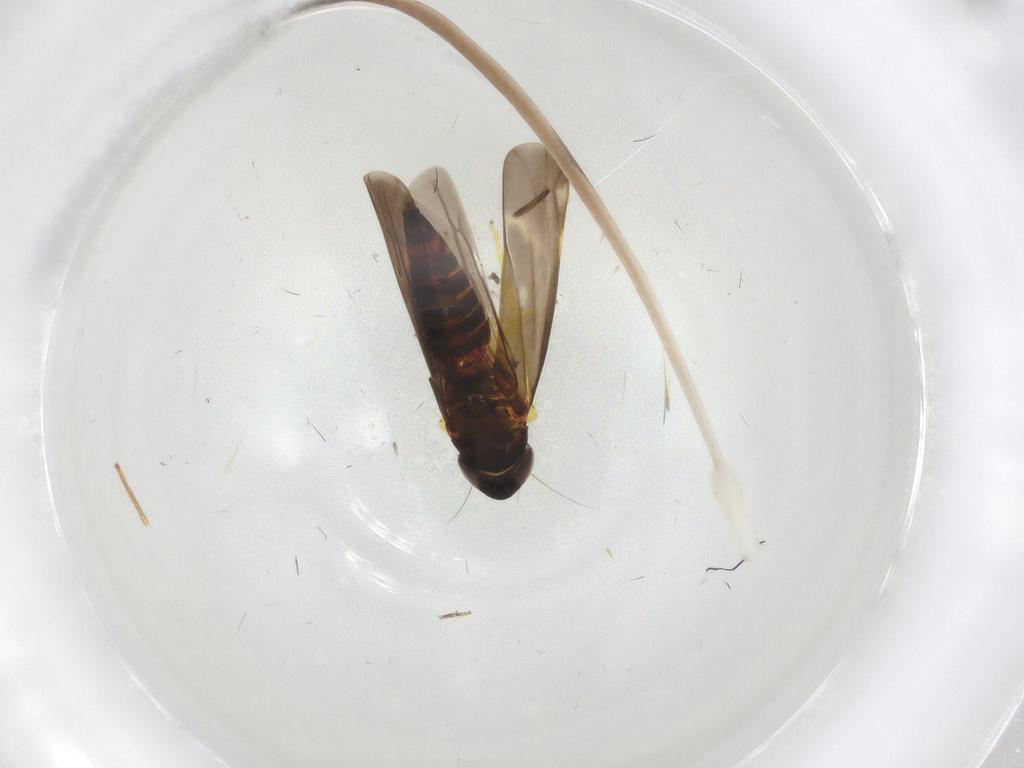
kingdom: Animalia
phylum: Arthropoda
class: Insecta
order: Hemiptera
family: Cicadellidae
